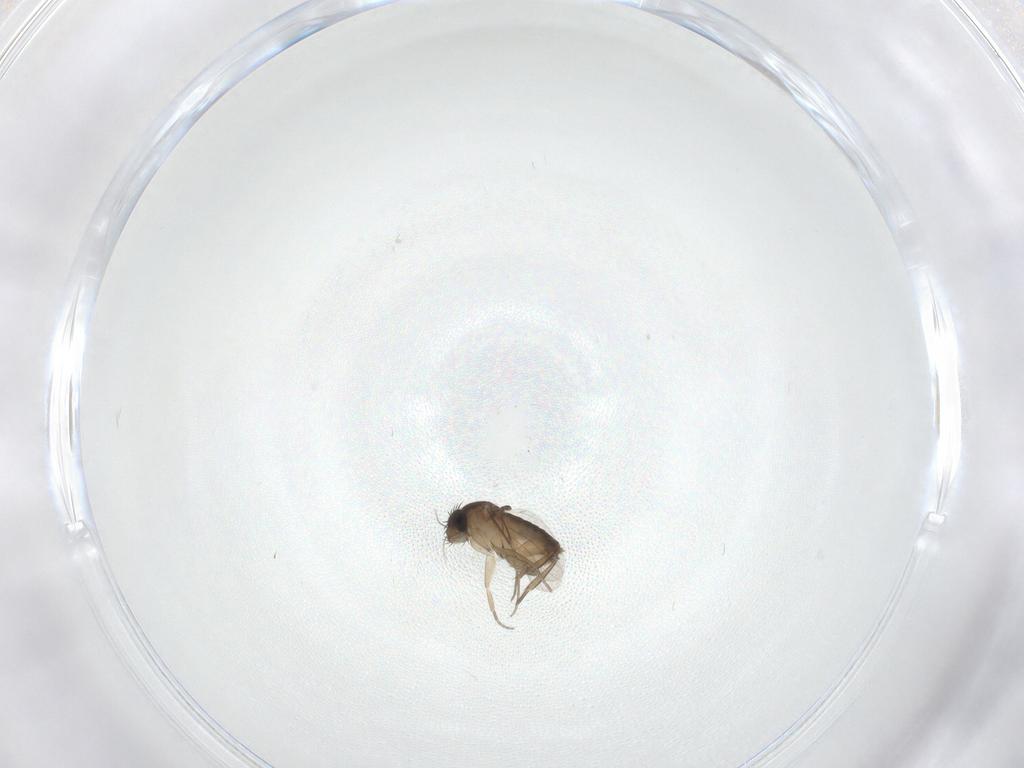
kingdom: Animalia
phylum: Arthropoda
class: Insecta
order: Diptera
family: Phoridae
